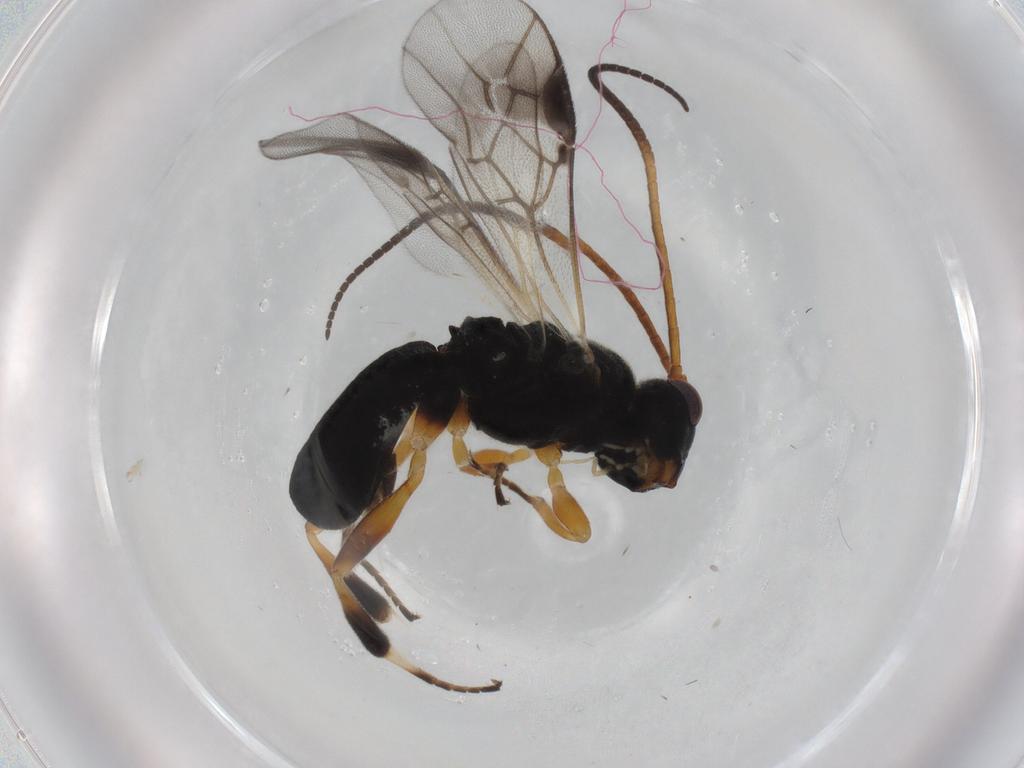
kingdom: Animalia
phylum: Arthropoda
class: Insecta
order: Hymenoptera
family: Braconidae
